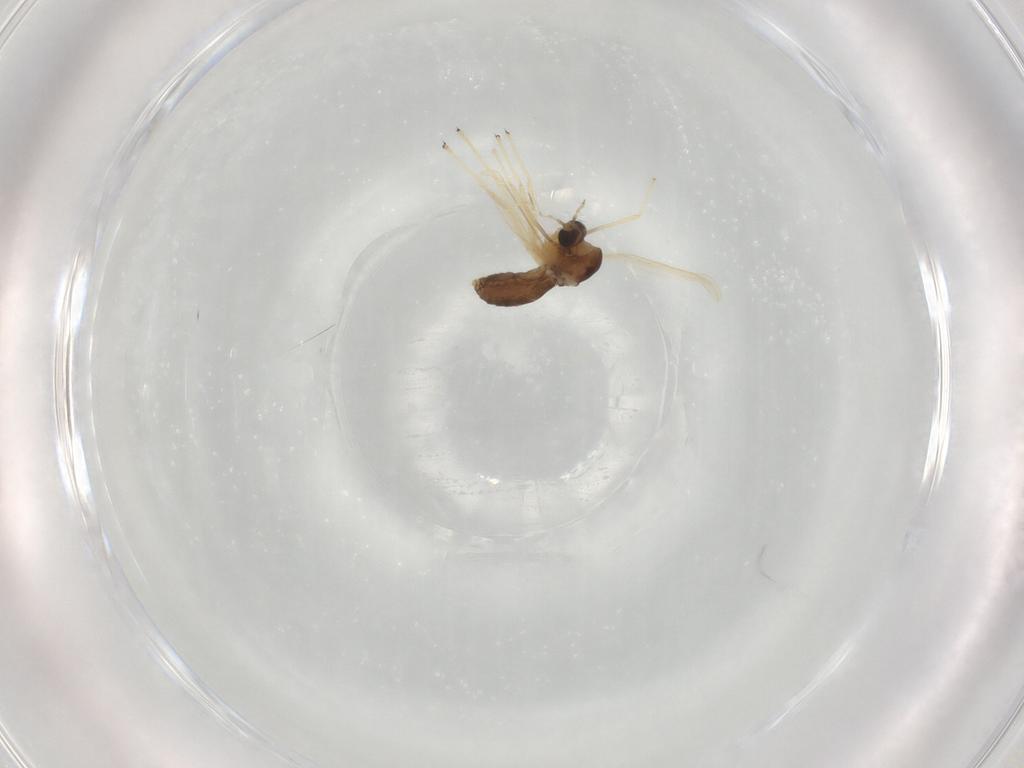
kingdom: Animalia
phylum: Arthropoda
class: Insecta
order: Diptera
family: Chironomidae
